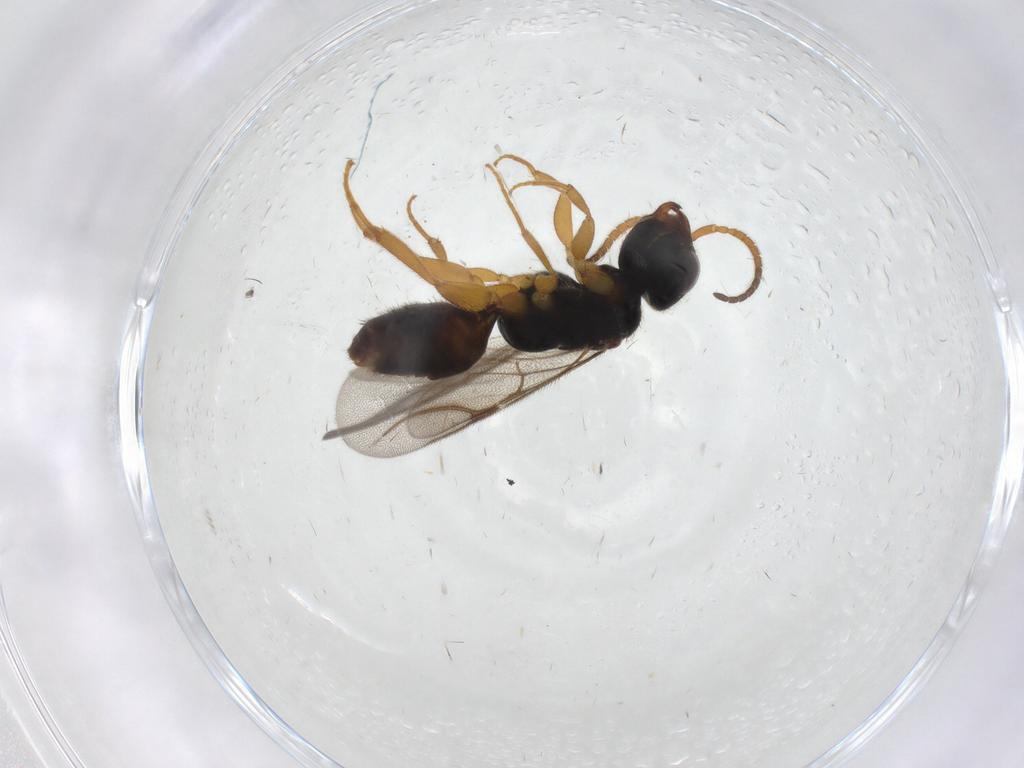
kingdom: Animalia
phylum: Arthropoda
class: Insecta
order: Hymenoptera
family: Bethylidae
